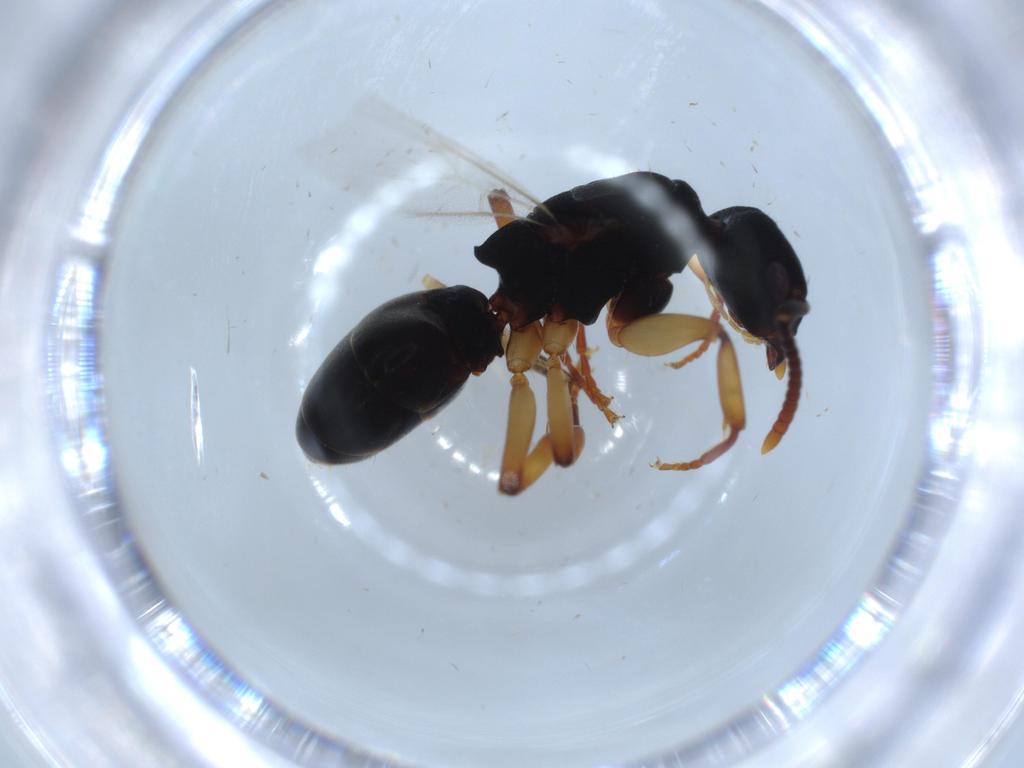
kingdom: Animalia
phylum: Arthropoda
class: Insecta
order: Hymenoptera
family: Formicidae
